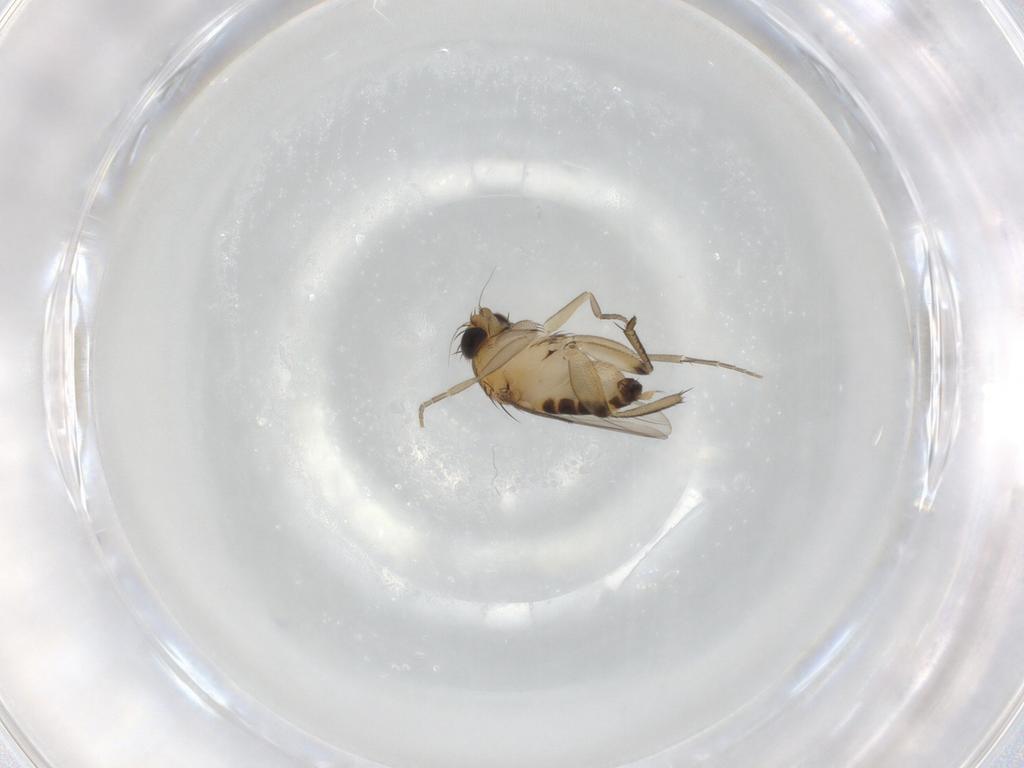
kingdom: Animalia
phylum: Arthropoda
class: Insecta
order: Diptera
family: Phoridae
